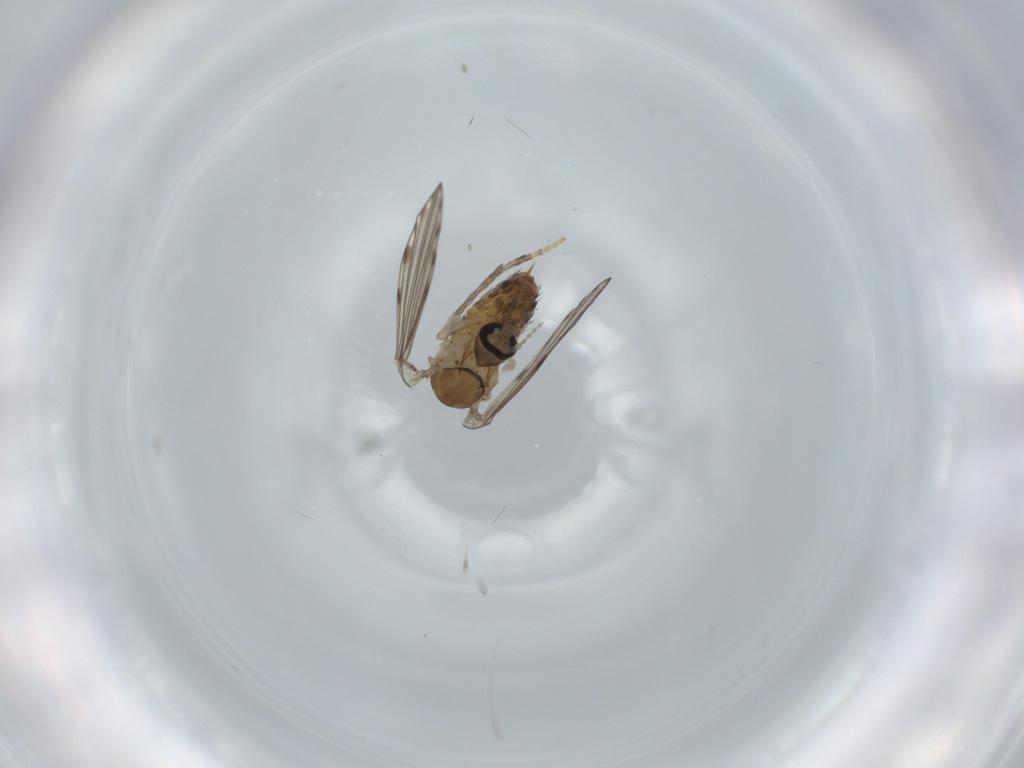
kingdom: Animalia
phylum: Arthropoda
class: Insecta
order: Diptera
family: Psychodidae
